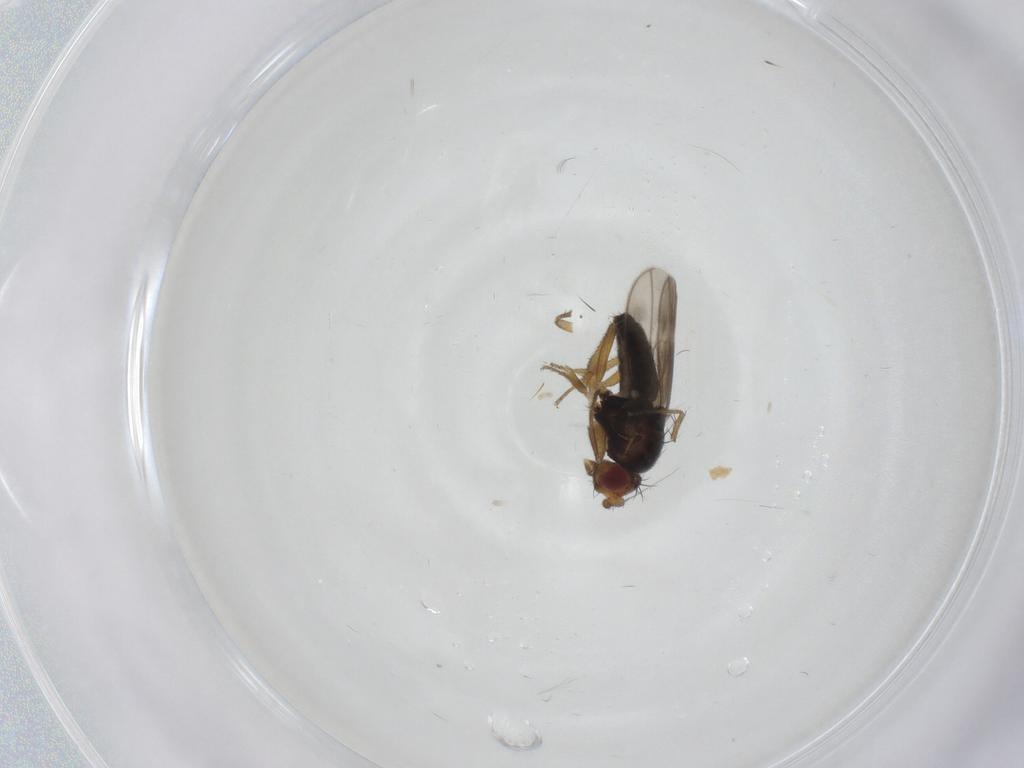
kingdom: Animalia
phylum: Arthropoda
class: Insecta
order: Diptera
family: Sphaeroceridae
